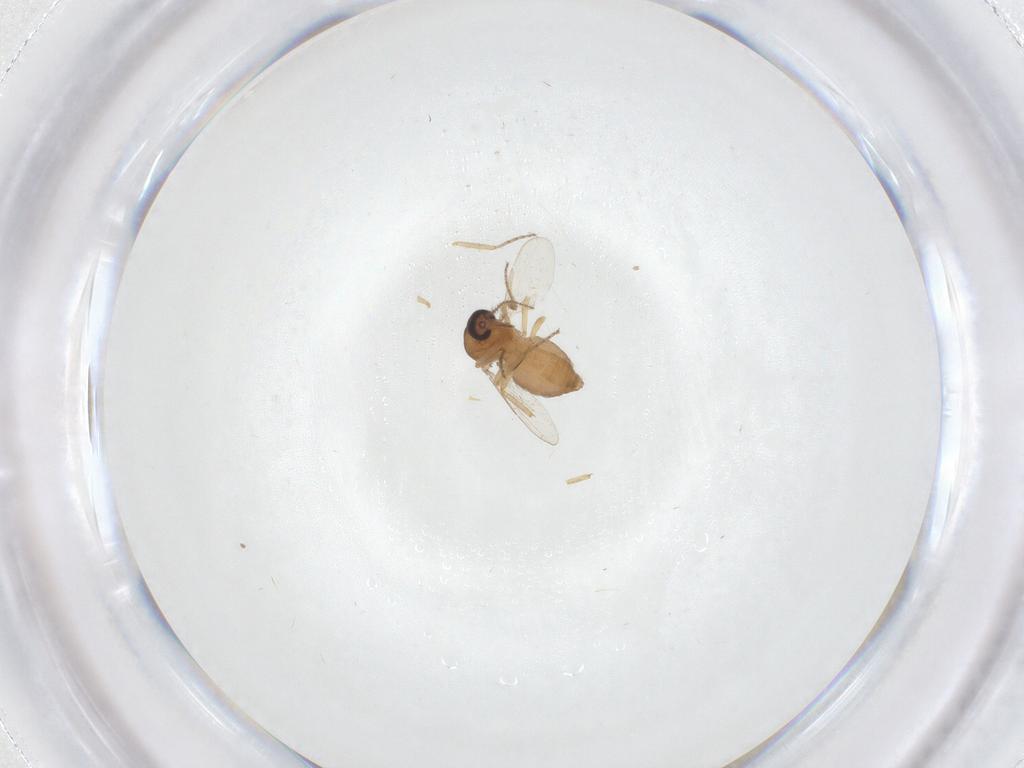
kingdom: Animalia
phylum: Arthropoda
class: Insecta
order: Diptera
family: Ceratopogonidae
